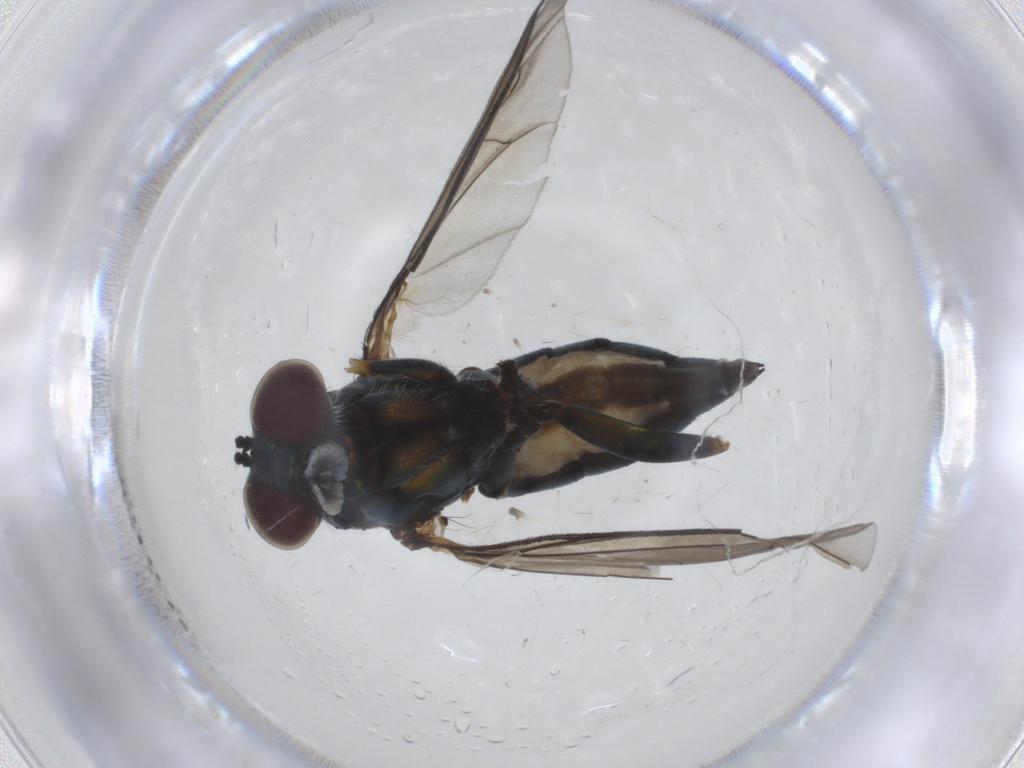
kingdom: Animalia
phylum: Arthropoda
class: Insecta
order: Diptera
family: Dolichopodidae
